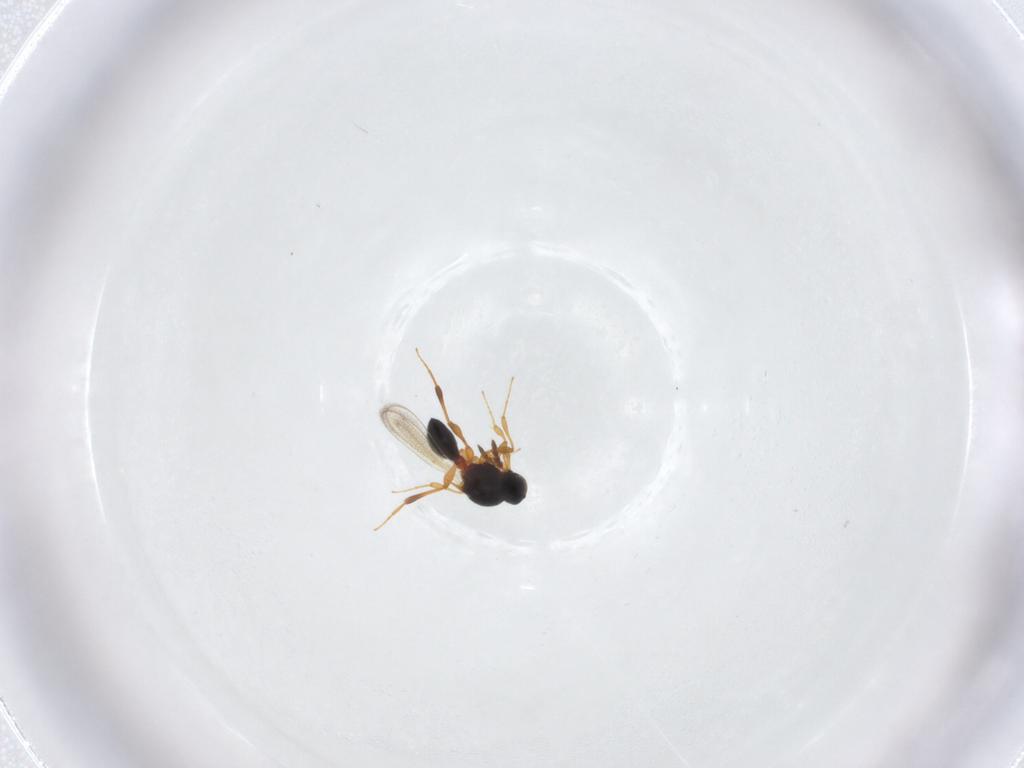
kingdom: Animalia
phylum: Arthropoda
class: Insecta
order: Hymenoptera
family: Platygastridae
